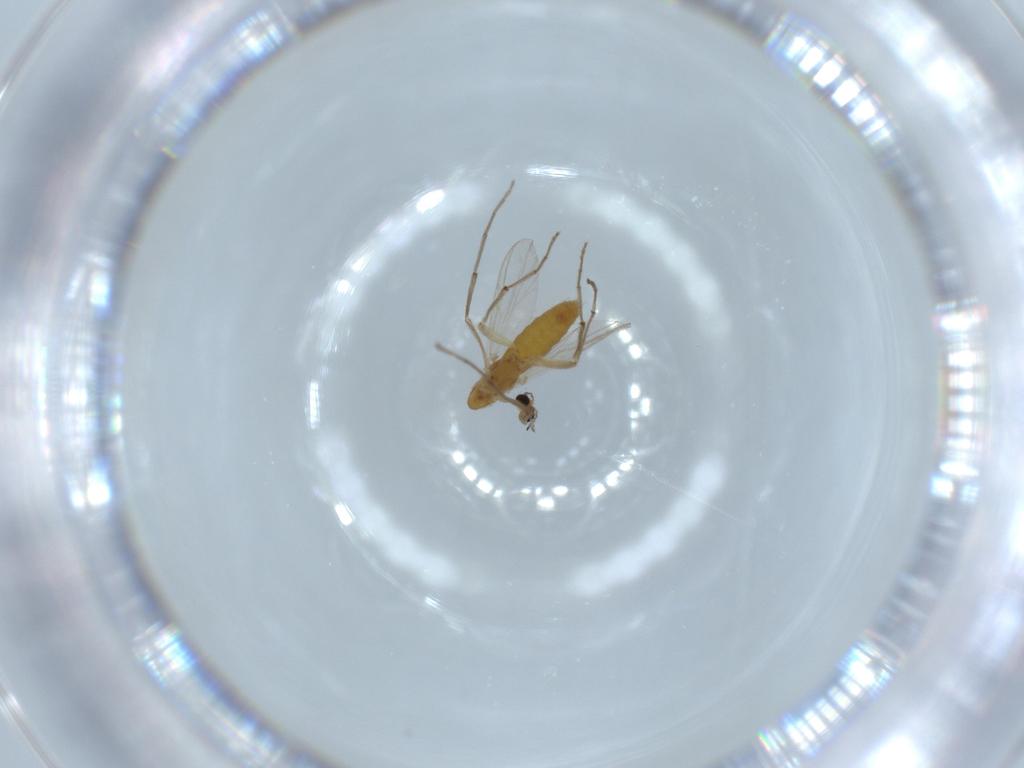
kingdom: Animalia
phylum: Arthropoda
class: Insecta
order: Diptera
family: Chironomidae
